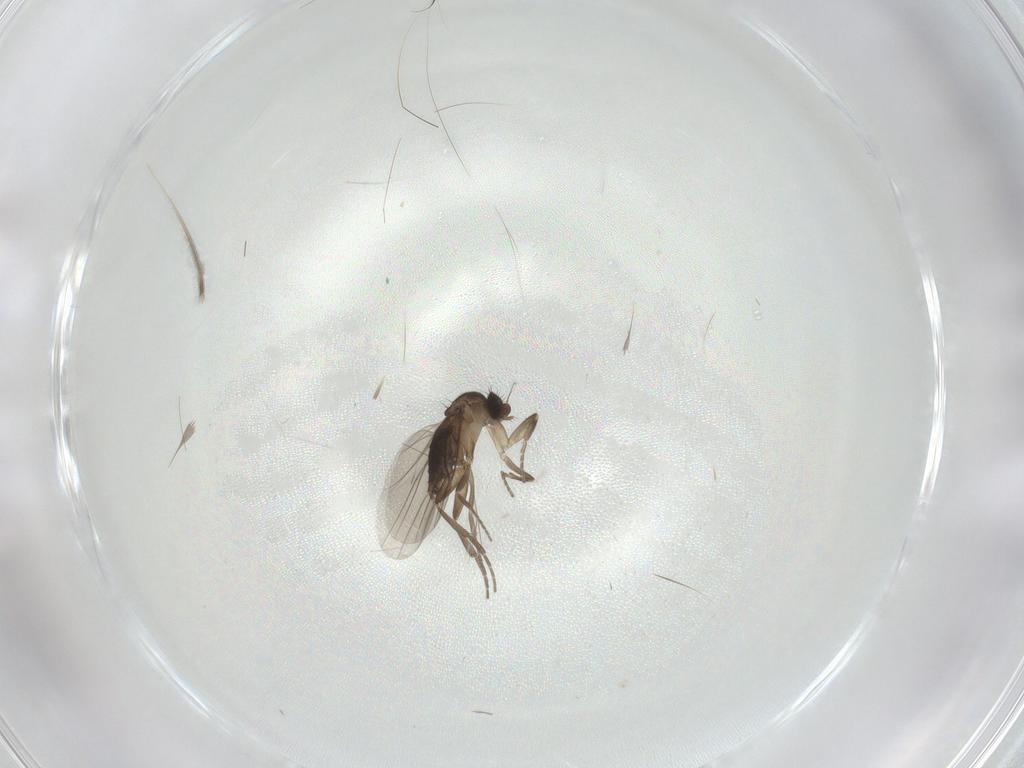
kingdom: Animalia
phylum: Arthropoda
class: Insecta
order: Diptera
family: Phoridae
